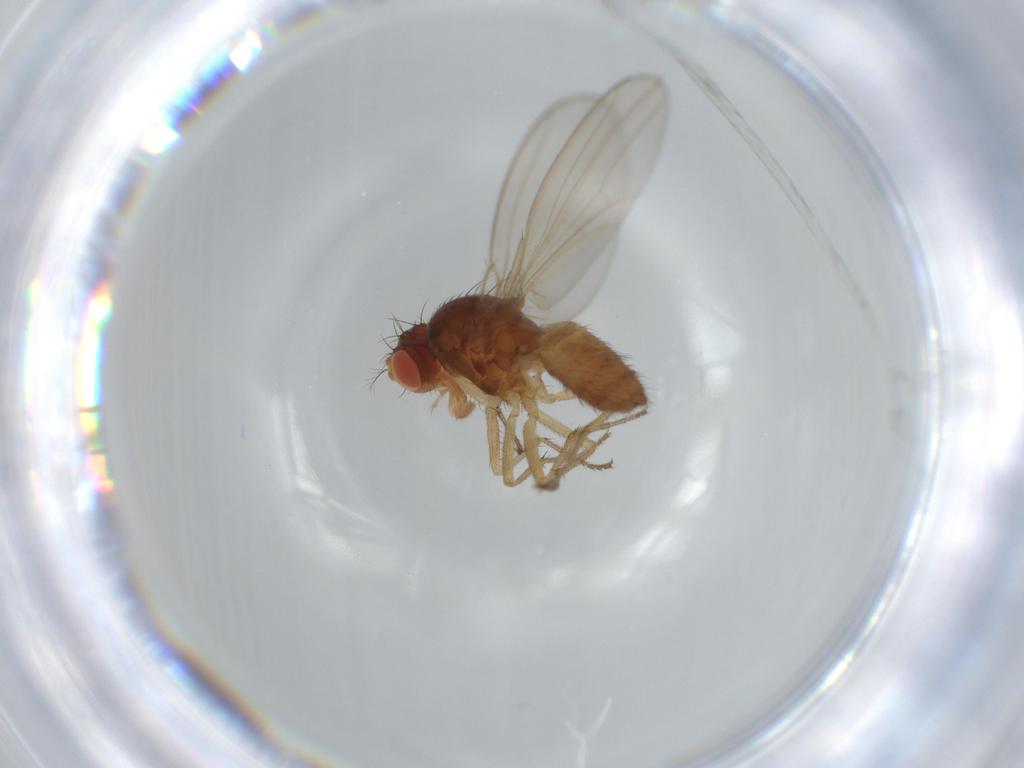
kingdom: Animalia
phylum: Arthropoda
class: Insecta
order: Diptera
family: Drosophilidae
